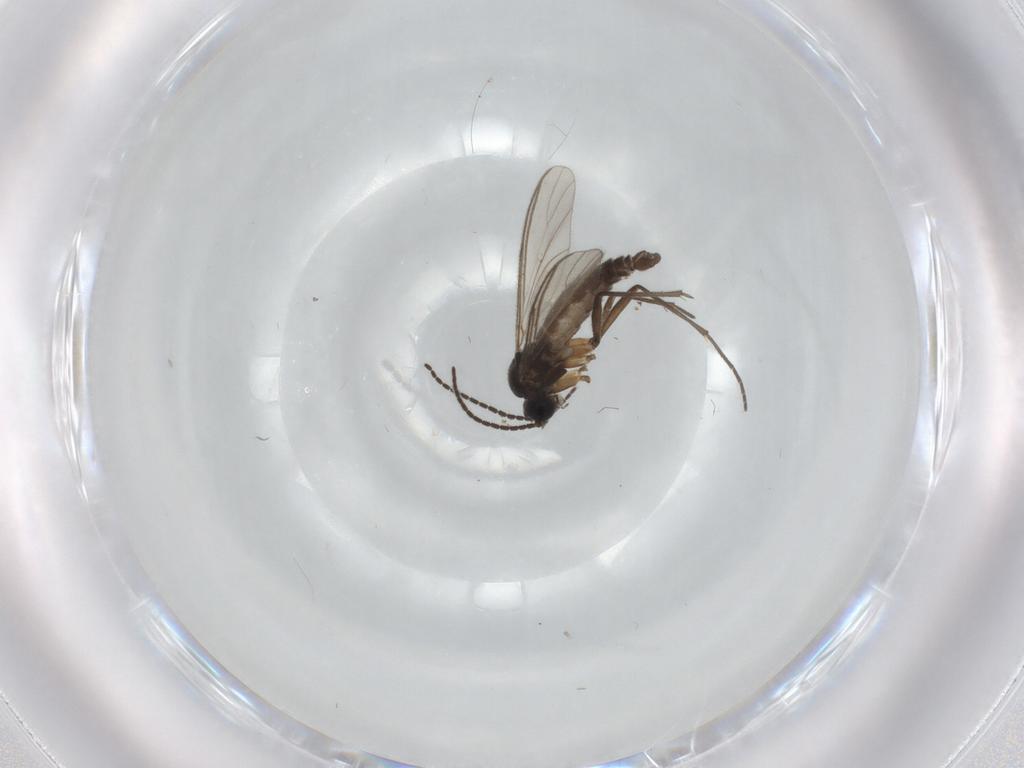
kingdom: Animalia
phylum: Arthropoda
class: Insecta
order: Diptera
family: Sciaridae
